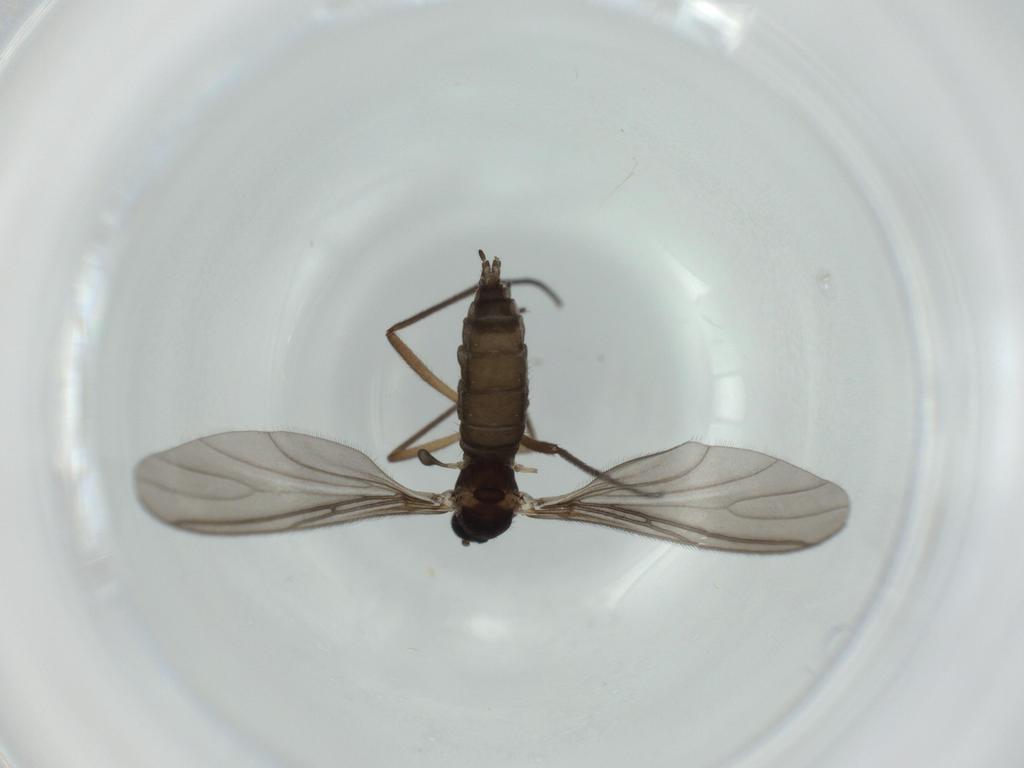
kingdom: Animalia
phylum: Arthropoda
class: Insecta
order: Diptera
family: Sciaridae
